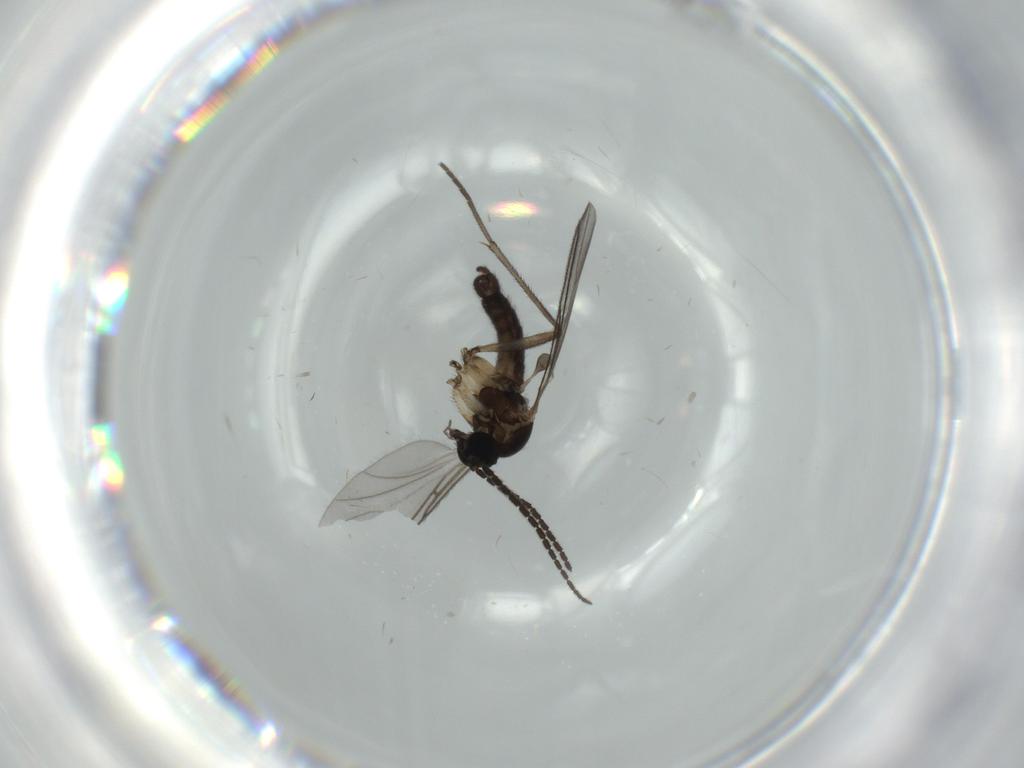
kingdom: Animalia
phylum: Arthropoda
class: Insecta
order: Diptera
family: Sciaridae
